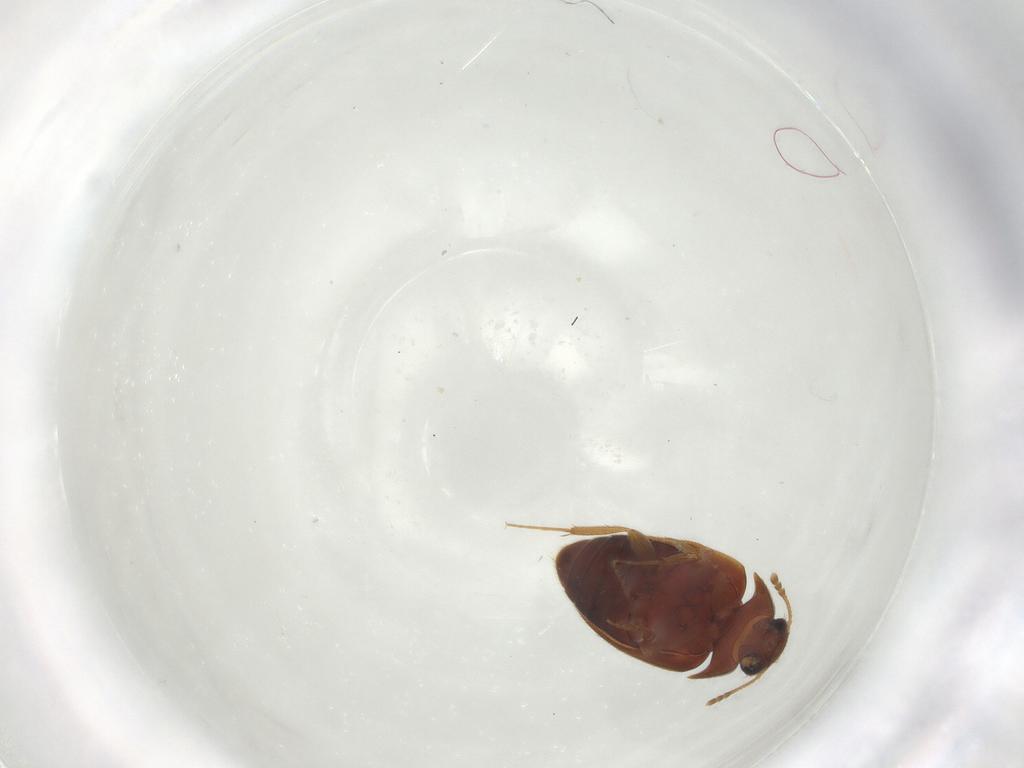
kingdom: Animalia
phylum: Arthropoda
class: Insecta
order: Coleoptera
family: Mycetophagidae
